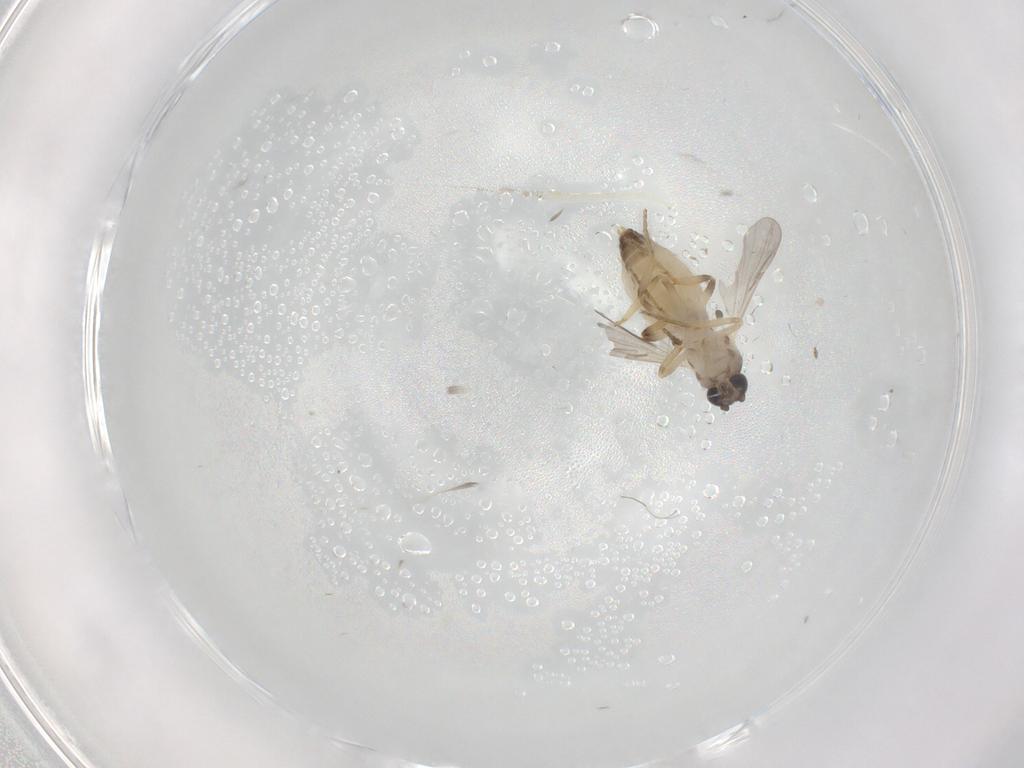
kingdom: Animalia
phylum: Arthropoda
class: Insecta
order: Diptera
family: Ceratopogonidae
